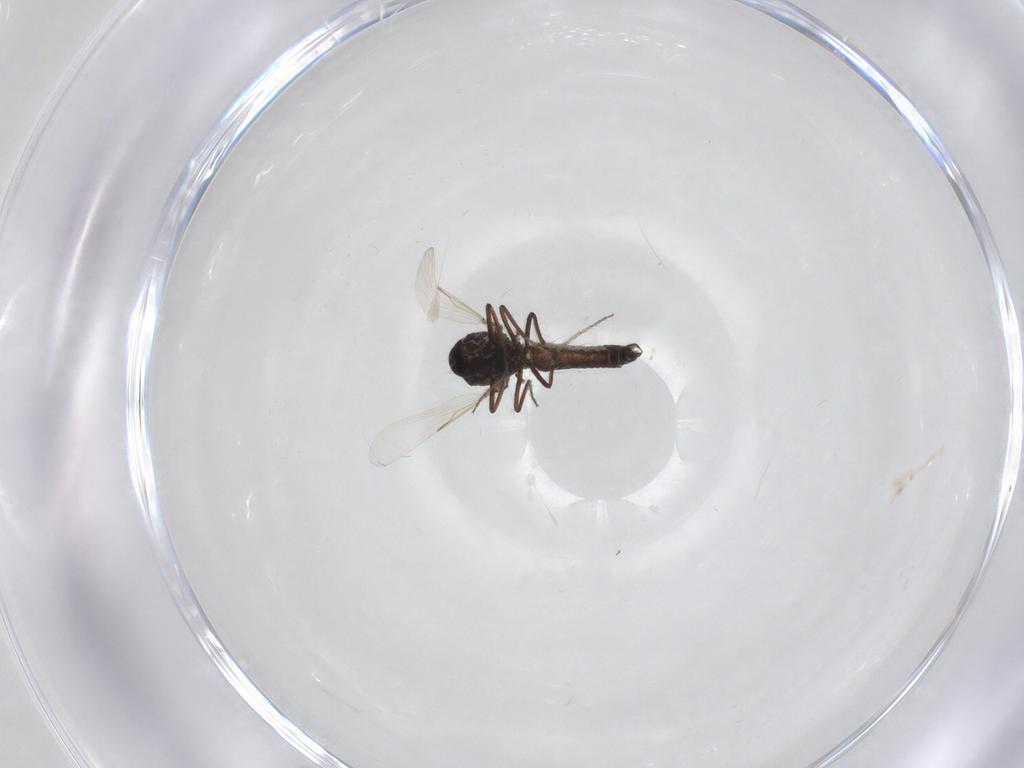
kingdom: Animalia
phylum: Arthropoda
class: Insecta
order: Diptera
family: Ceratopogonidae
